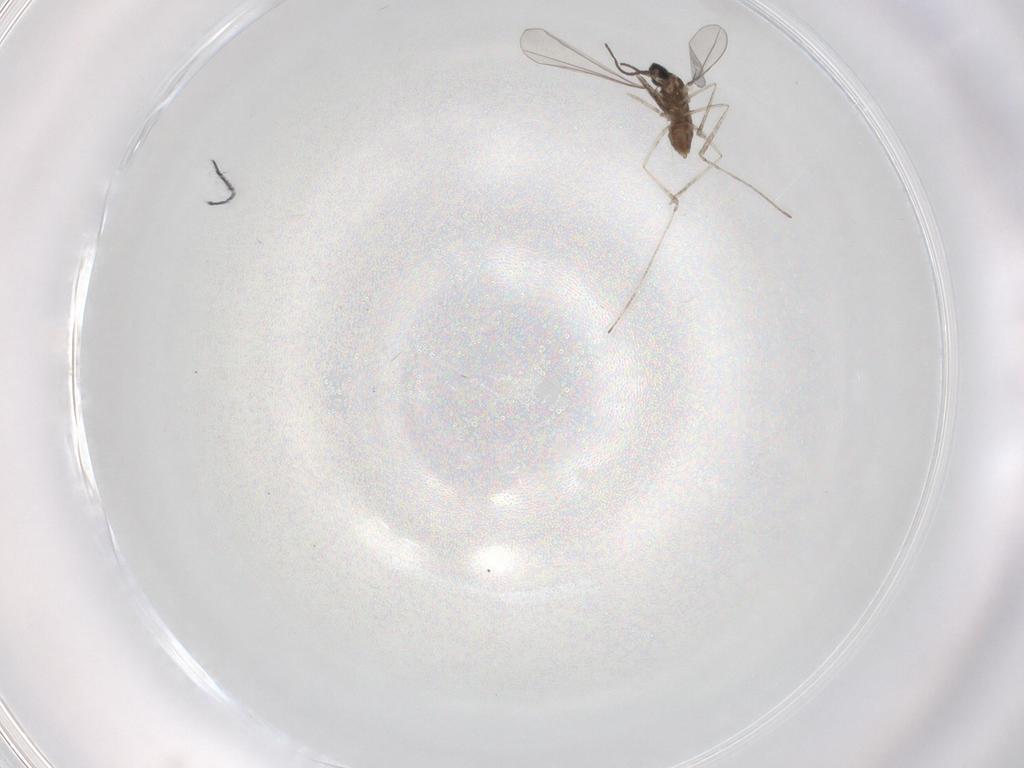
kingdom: Animalia
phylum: Arthropoda
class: Insecta
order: Diptera
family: Cecidomyiidae
